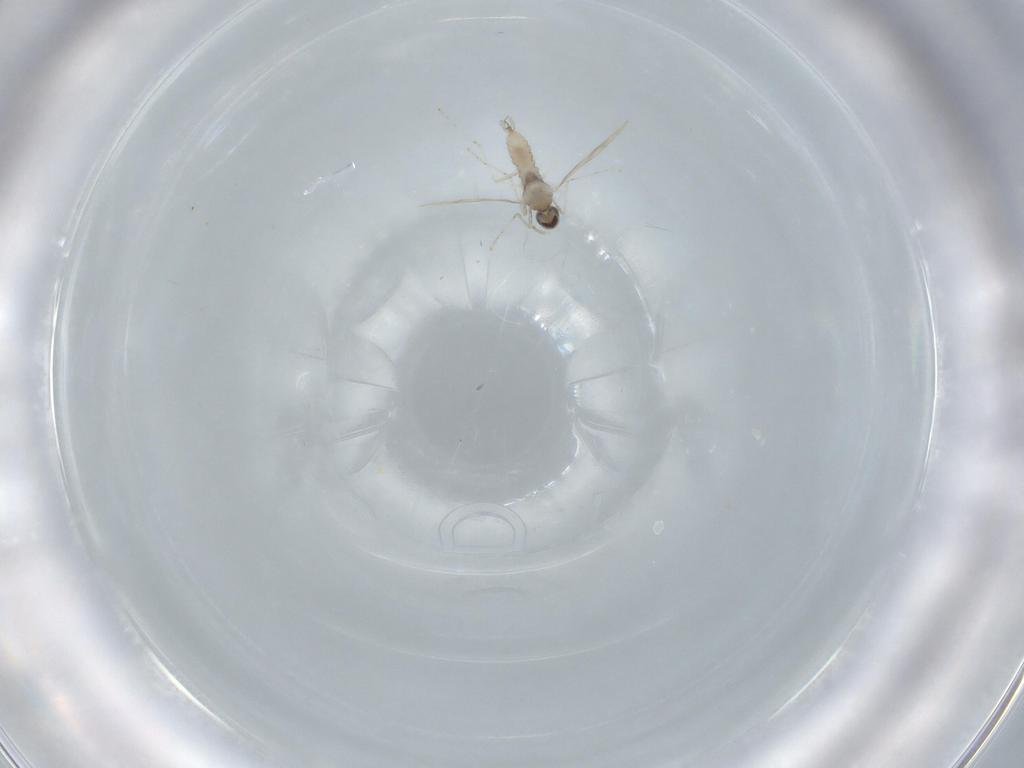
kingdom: Animalia
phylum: Arthropoda
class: Insecta
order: Diptera
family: Cecidomyiidae
